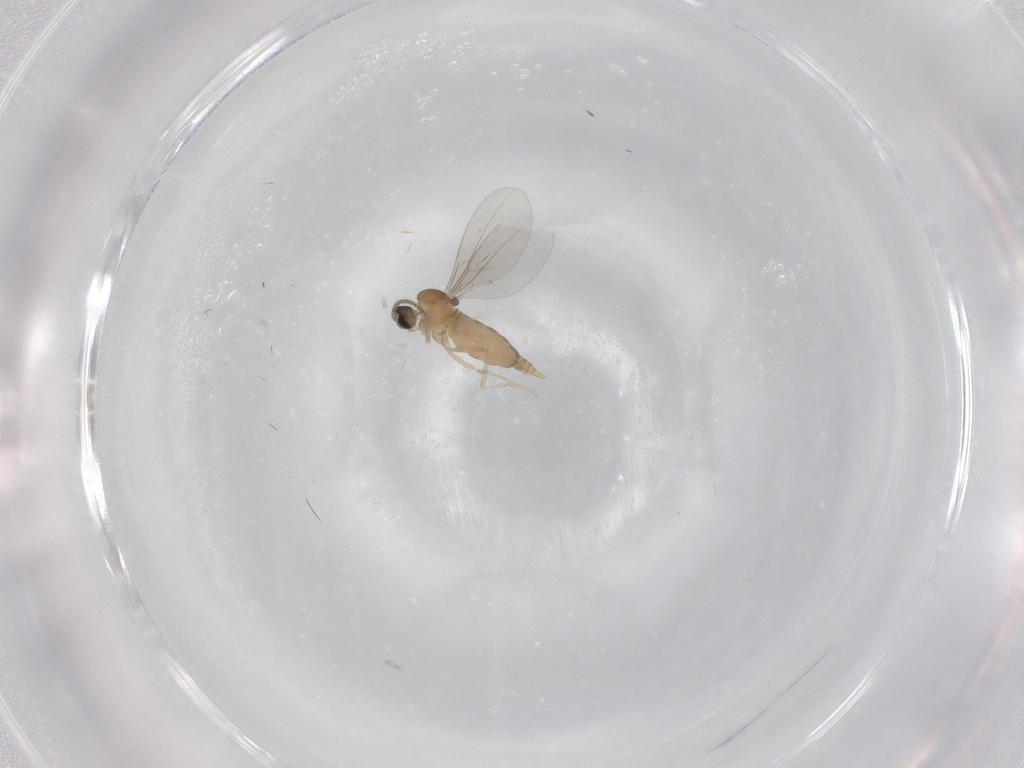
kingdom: Animalia
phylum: Arthropoda
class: Insecta
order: Diptera
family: Cecidomyiidae
